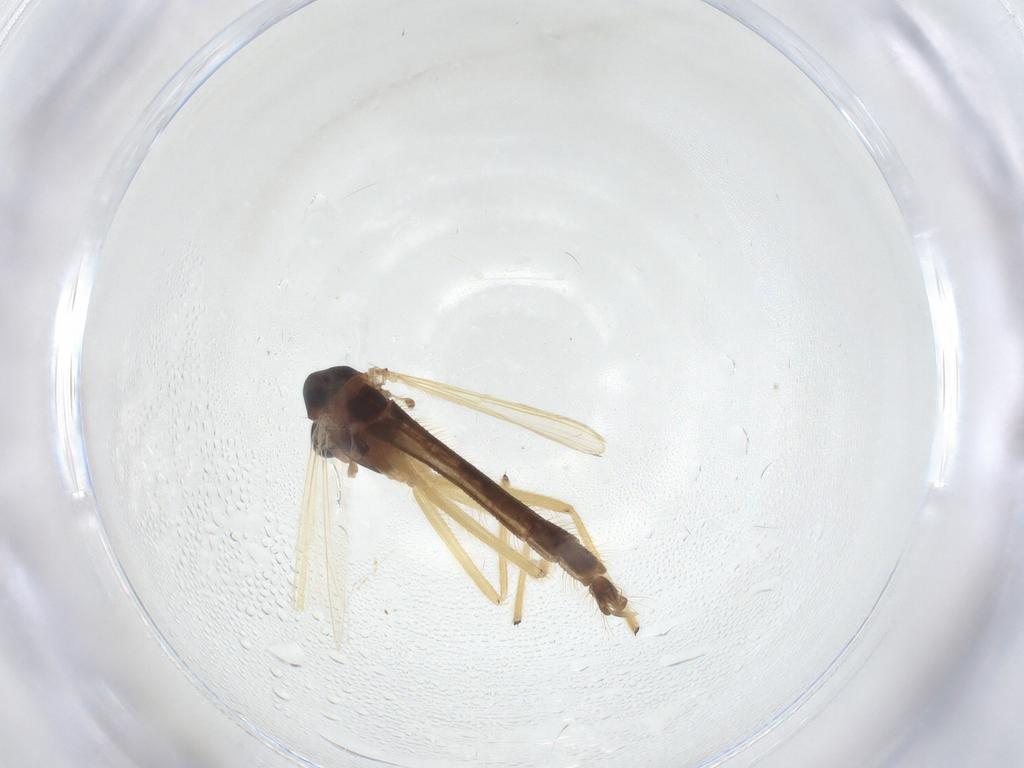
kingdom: Animalia
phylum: Arthropoda
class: Insecta
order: Diptera
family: Chironomidae
